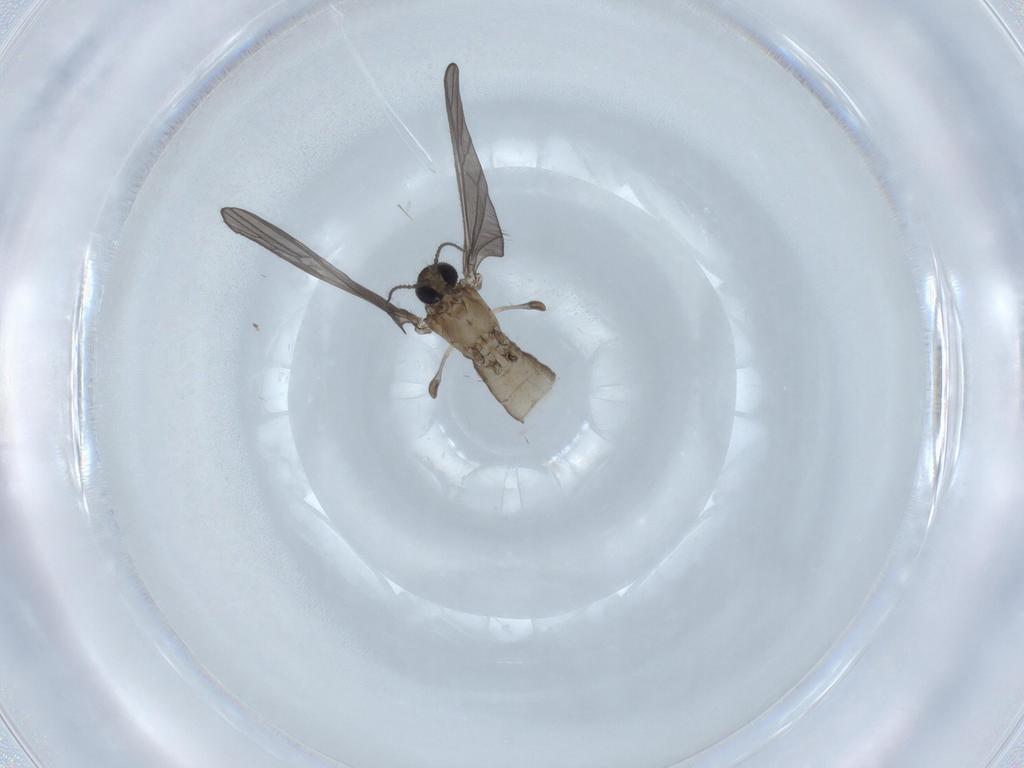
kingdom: Animalia
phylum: Arthropoda
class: Insecta
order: Diptera
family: Limoniidae
